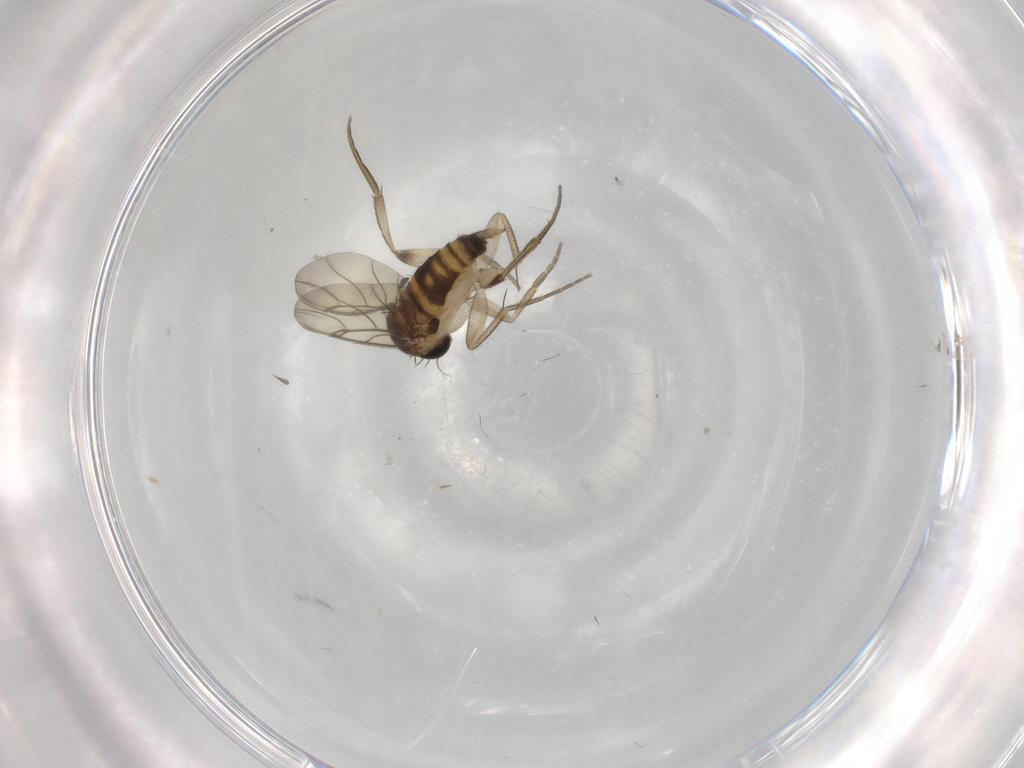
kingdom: Animalia
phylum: Arthropoda
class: Insecta
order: Diptera
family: Phoridae
